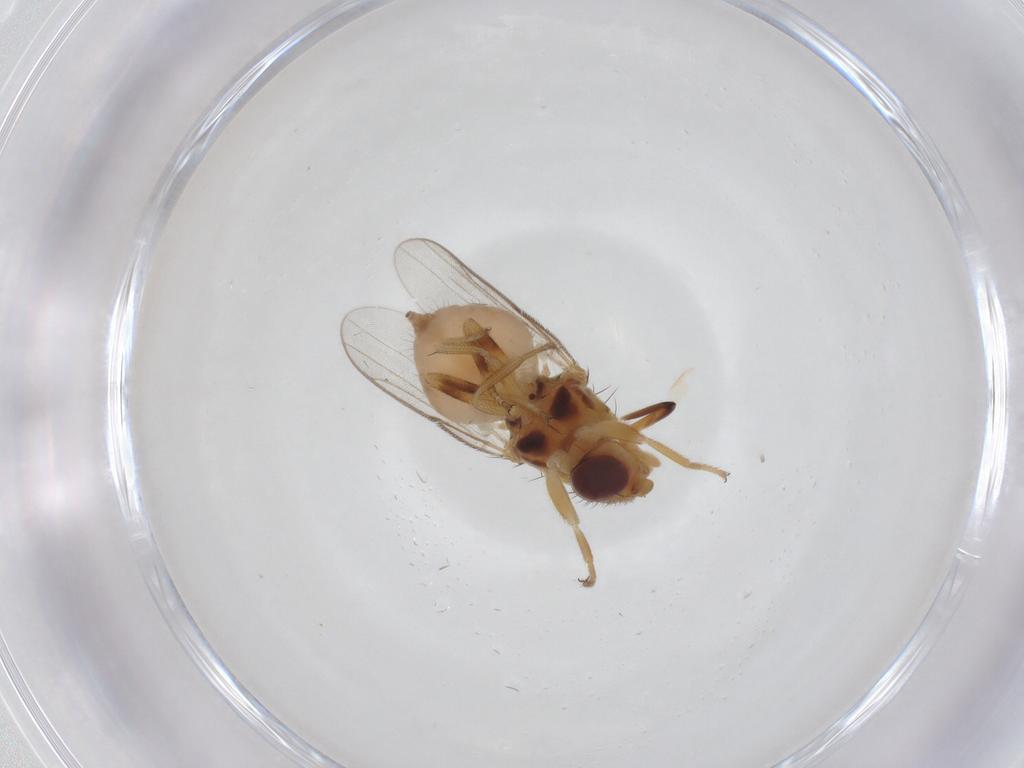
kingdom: Animalia
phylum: Arthropoda
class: Insecta
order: Diptera
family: Chloropidae
